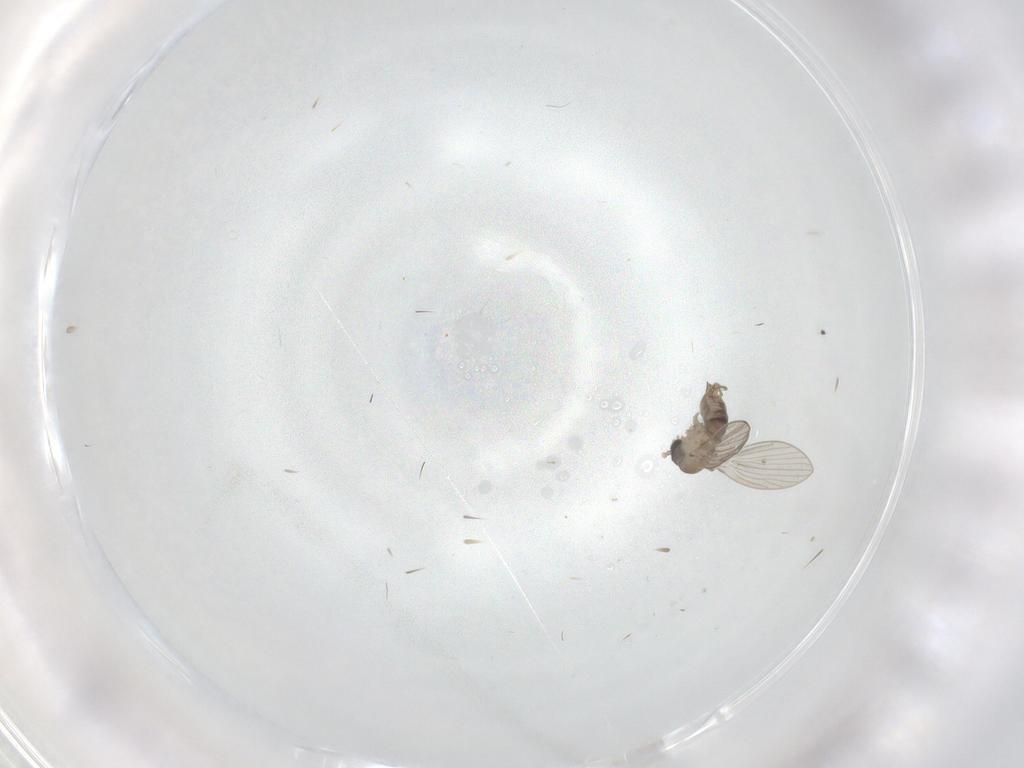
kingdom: Animalia
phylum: Arthropoda
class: Insecta
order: Diptera
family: Psychodidae
